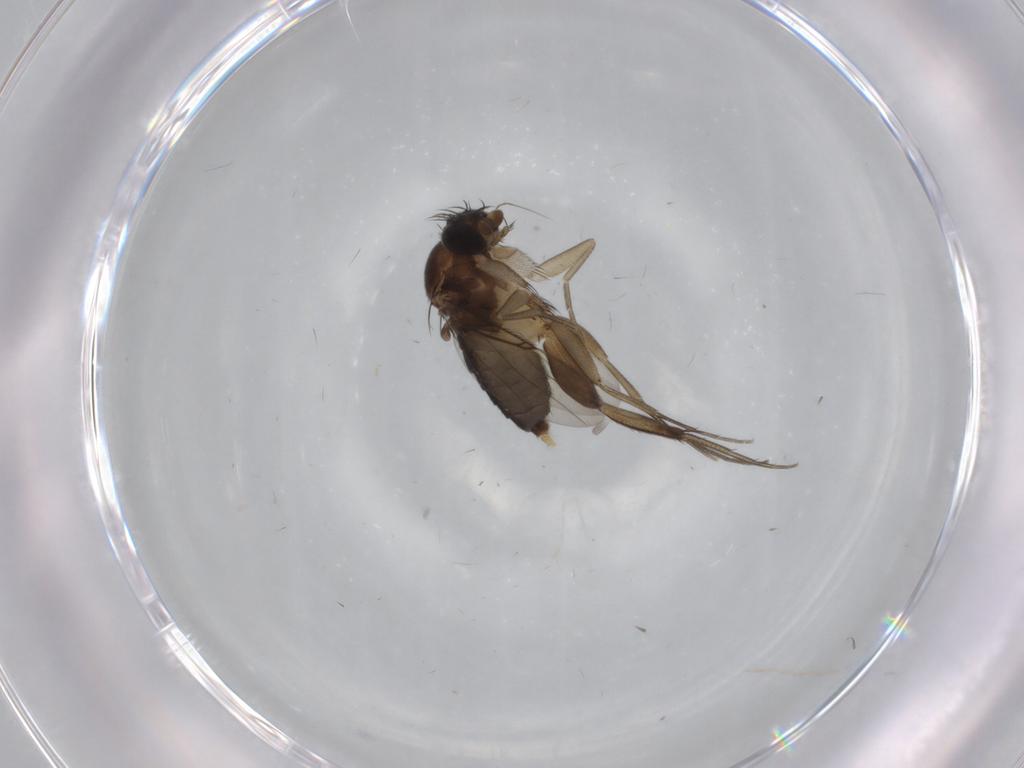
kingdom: Animalia
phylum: Arthropoda
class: Insecta
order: Diptera
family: Phoridae
